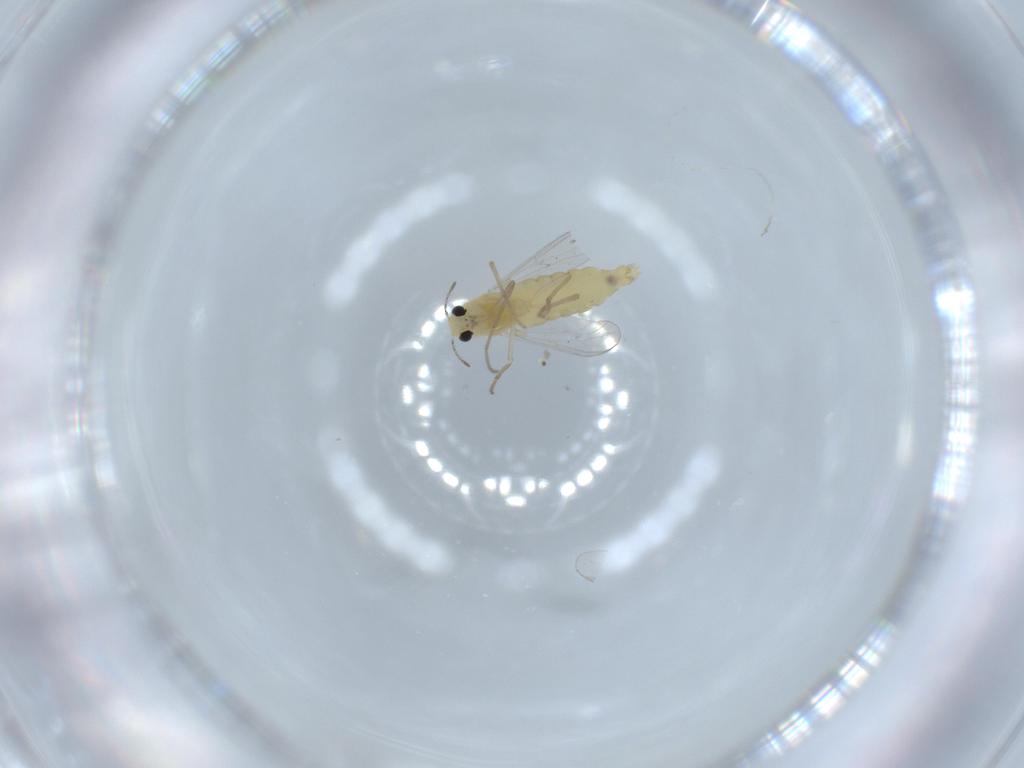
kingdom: Animalia
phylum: Arthropoda
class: Insecta
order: Diptera
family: Chironomidae
